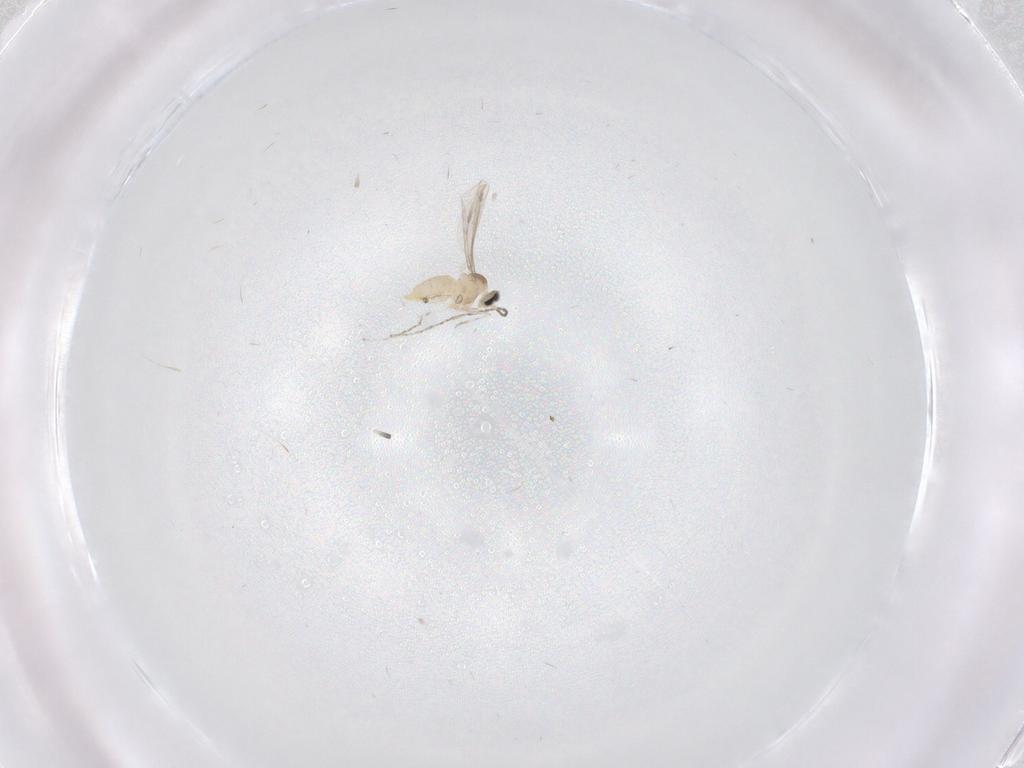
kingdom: Animalia
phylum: Arthropoda
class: Insecta
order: Diptera
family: Cecidomyiidae
